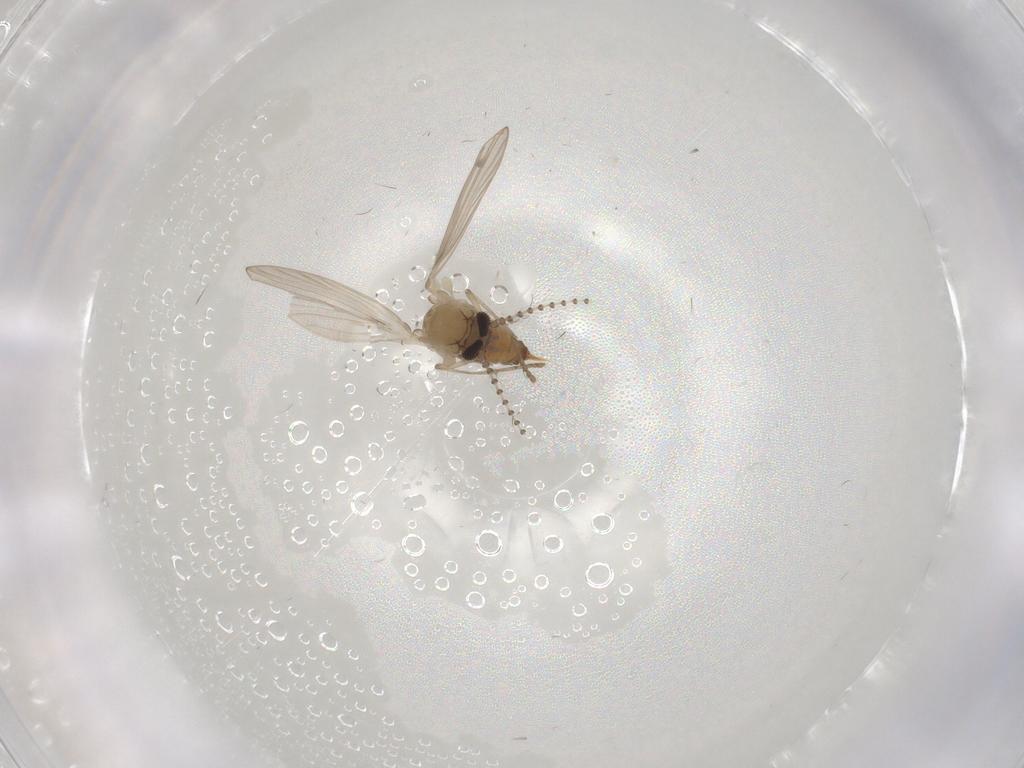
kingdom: Animalia
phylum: Arthropoda
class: Insecta
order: Diptera
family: Psychodidae
